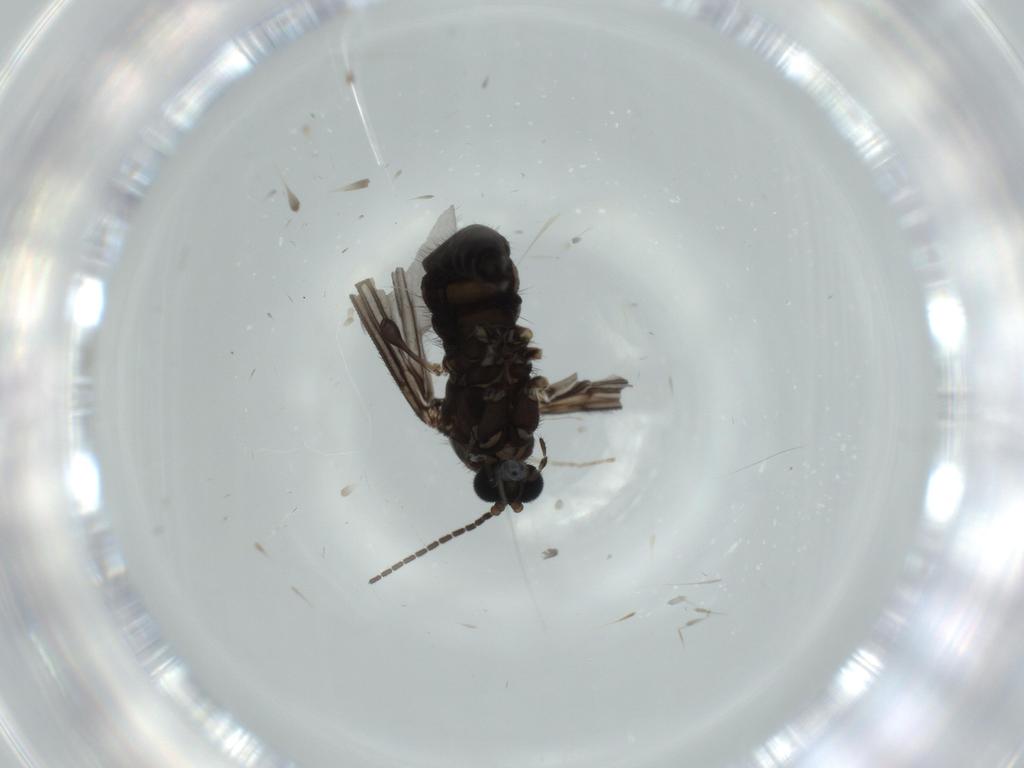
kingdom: Animalia
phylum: Arthropoda
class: Insecta
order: Diptera
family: Sciaridae
